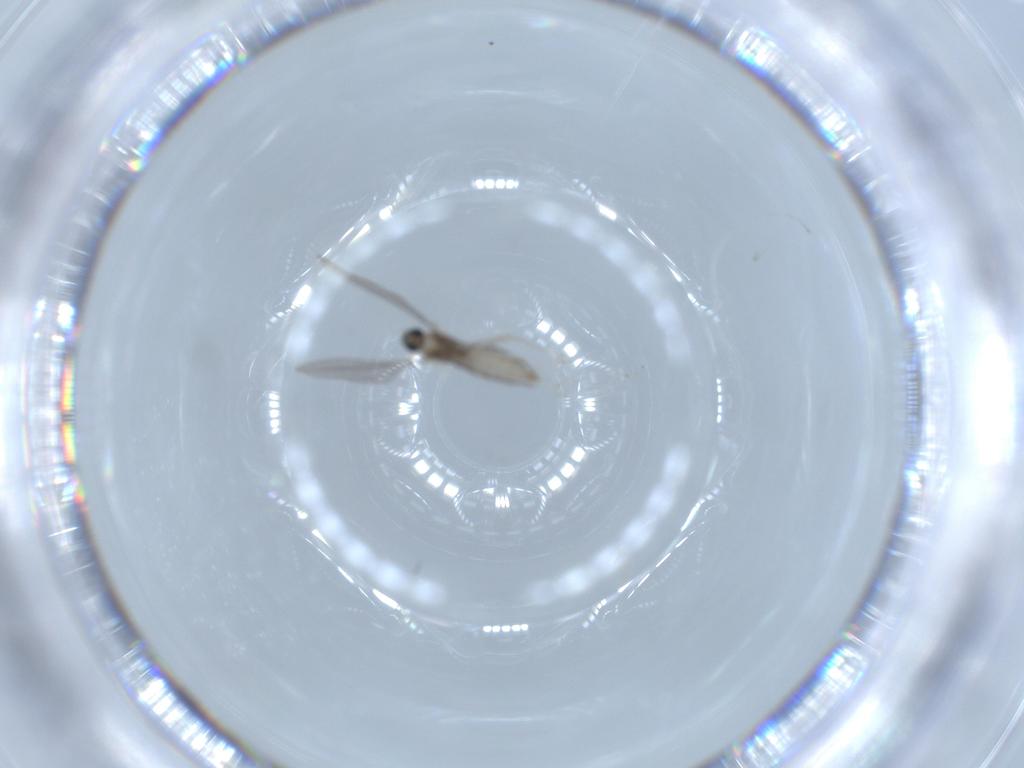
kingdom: Animalia
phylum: Arthropoda
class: Insecta
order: Diptera
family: Cecidomyiidae
